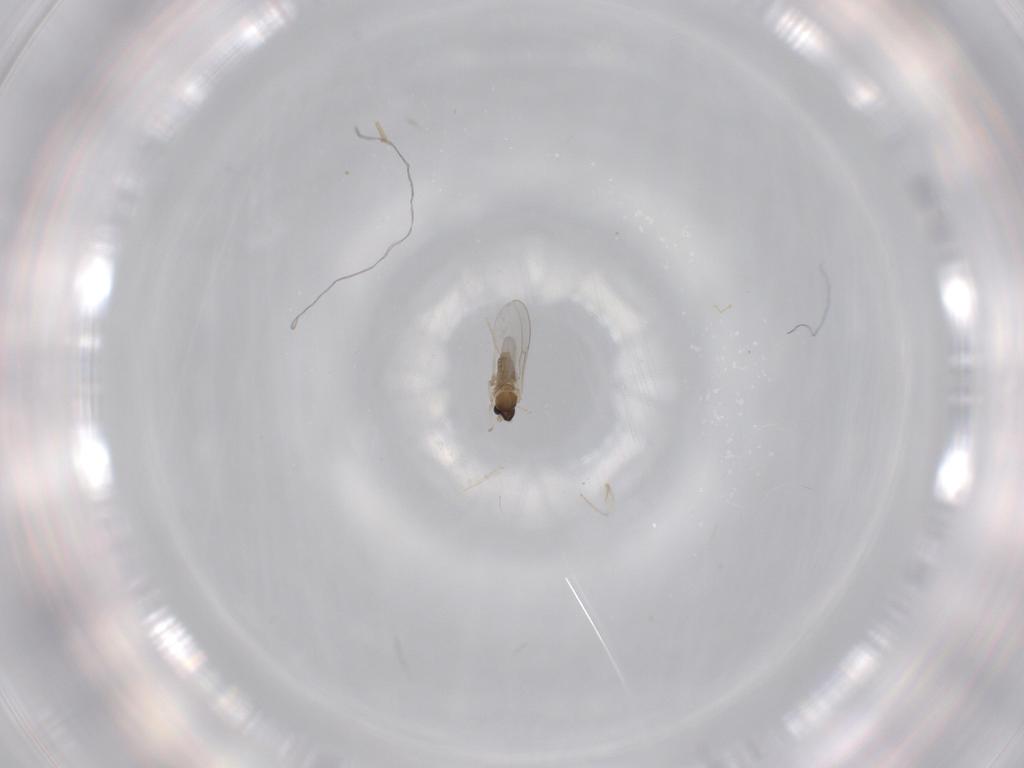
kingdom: Animalia
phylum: Arthropoda
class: Insecta
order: Diptera
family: Cecidomyiidae
